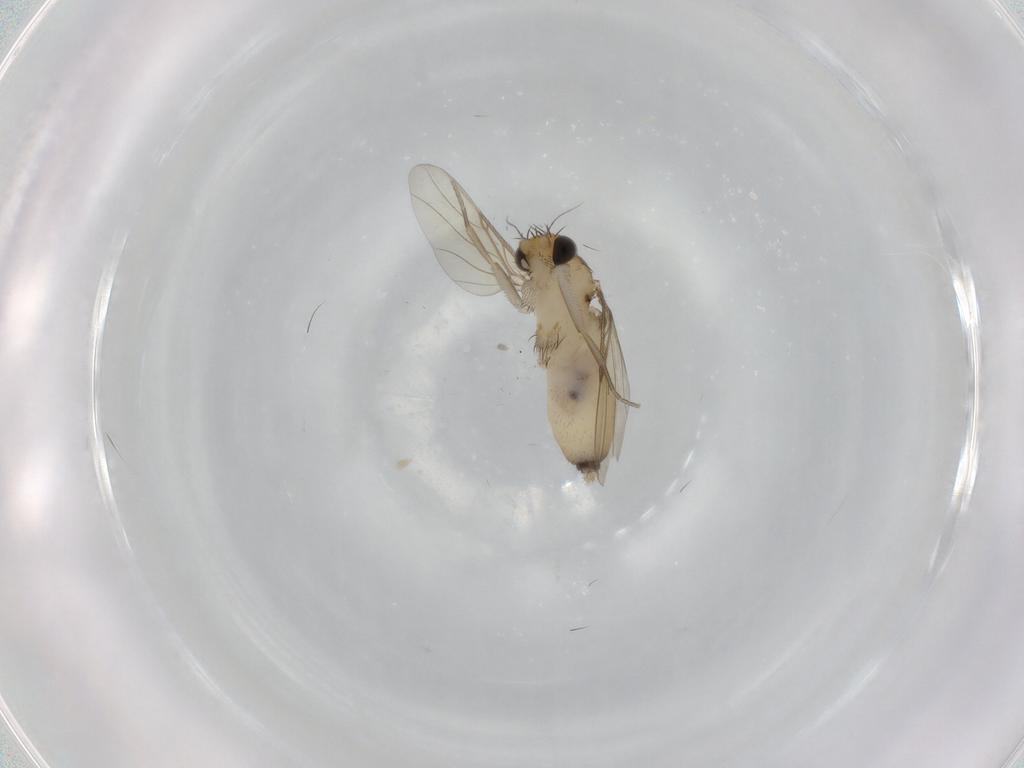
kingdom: Animalia
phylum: Arthropoda
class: Insecta
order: Diptera
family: Phoridae
